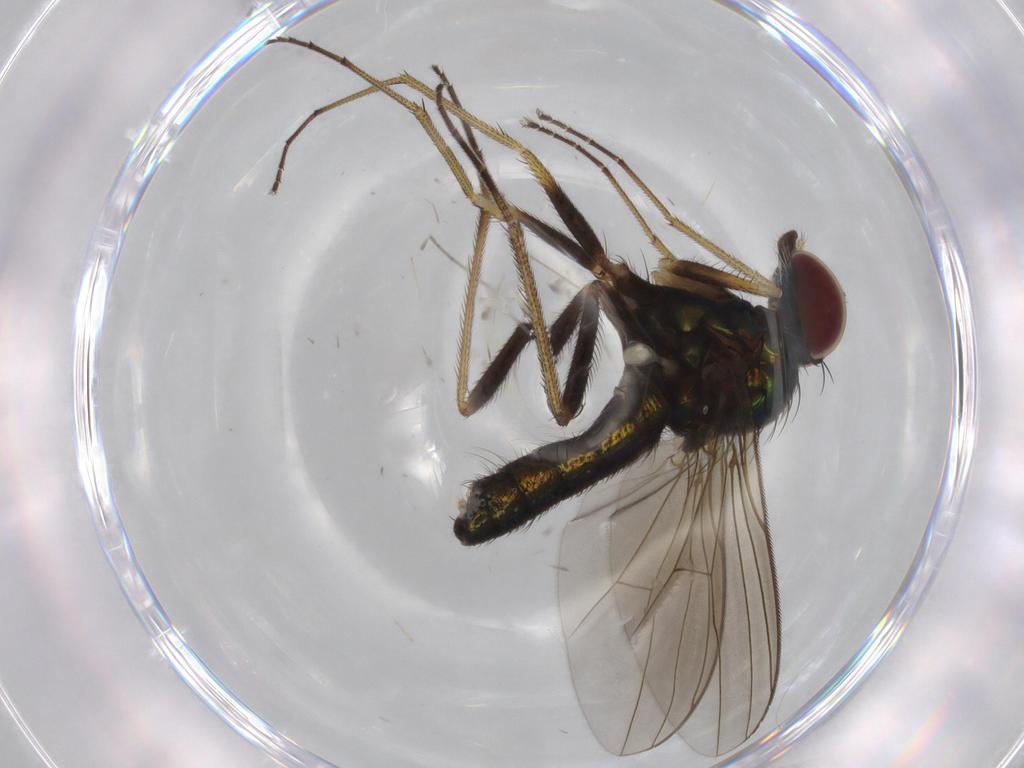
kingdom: Animalia
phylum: Arthropoda
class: Insecta
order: Diptera
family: Dolichopodidae
